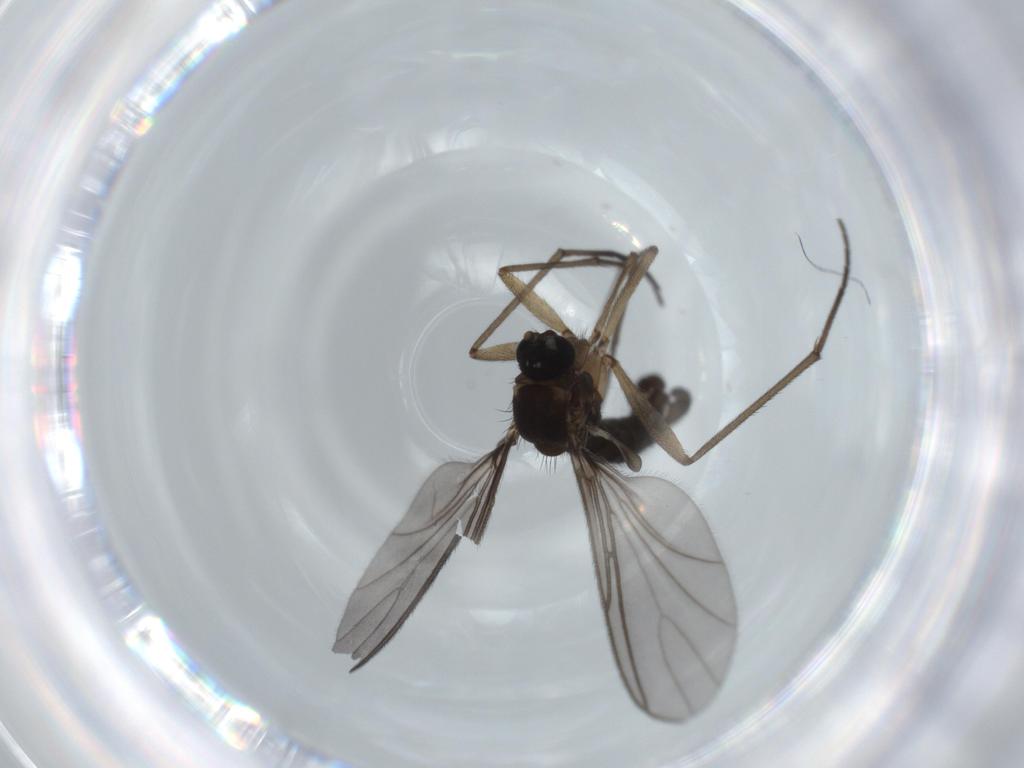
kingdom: Animalia
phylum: Arthropoda
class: Insecta
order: Diptera
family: Sciaridae
